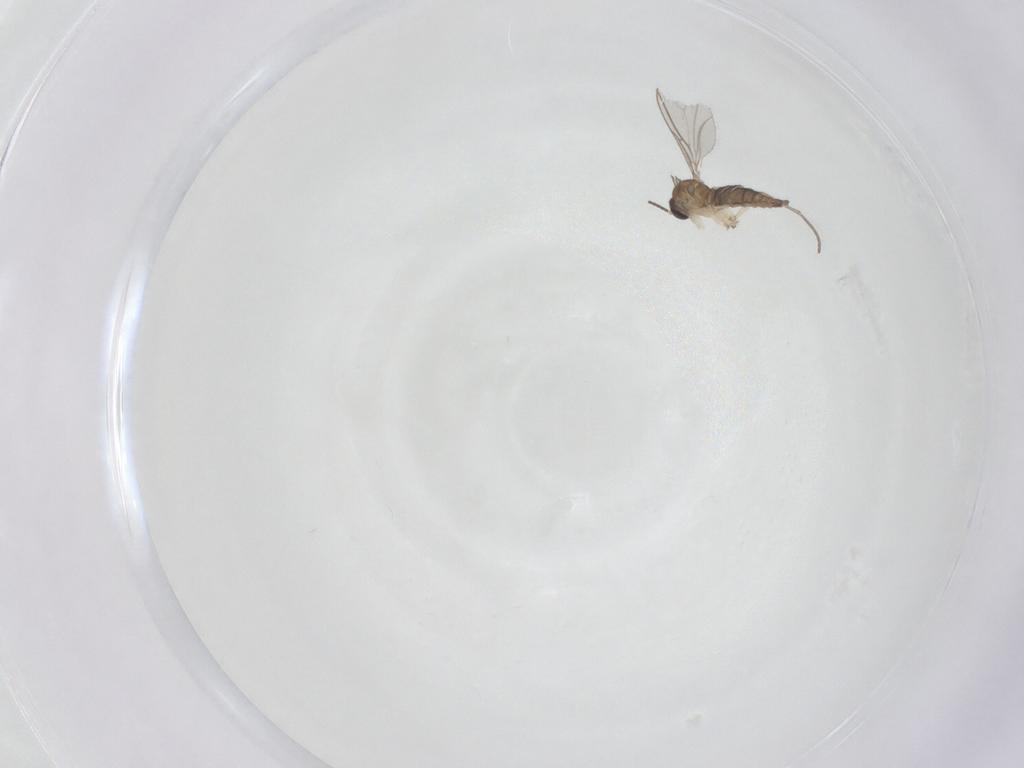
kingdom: Animalia
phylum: Arthropoda
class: Insecta
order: Diptera
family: Sciaridae
